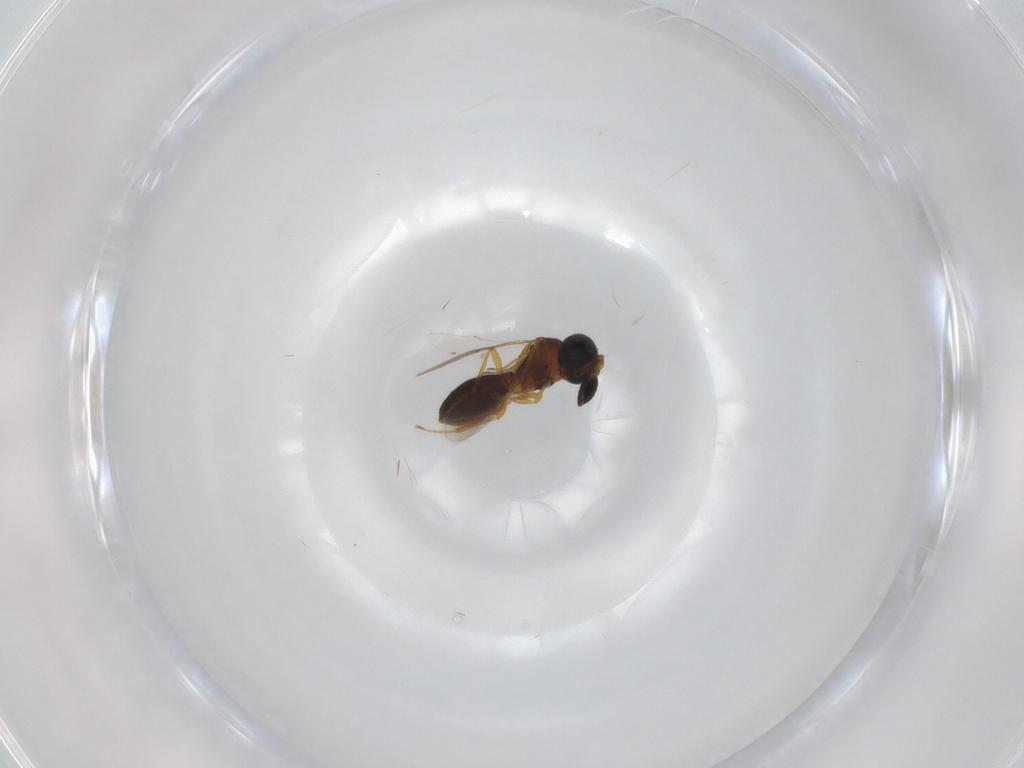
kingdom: Animalia
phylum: Arthropoda
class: Insecta
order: Hymenoptera
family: Scelionidae
